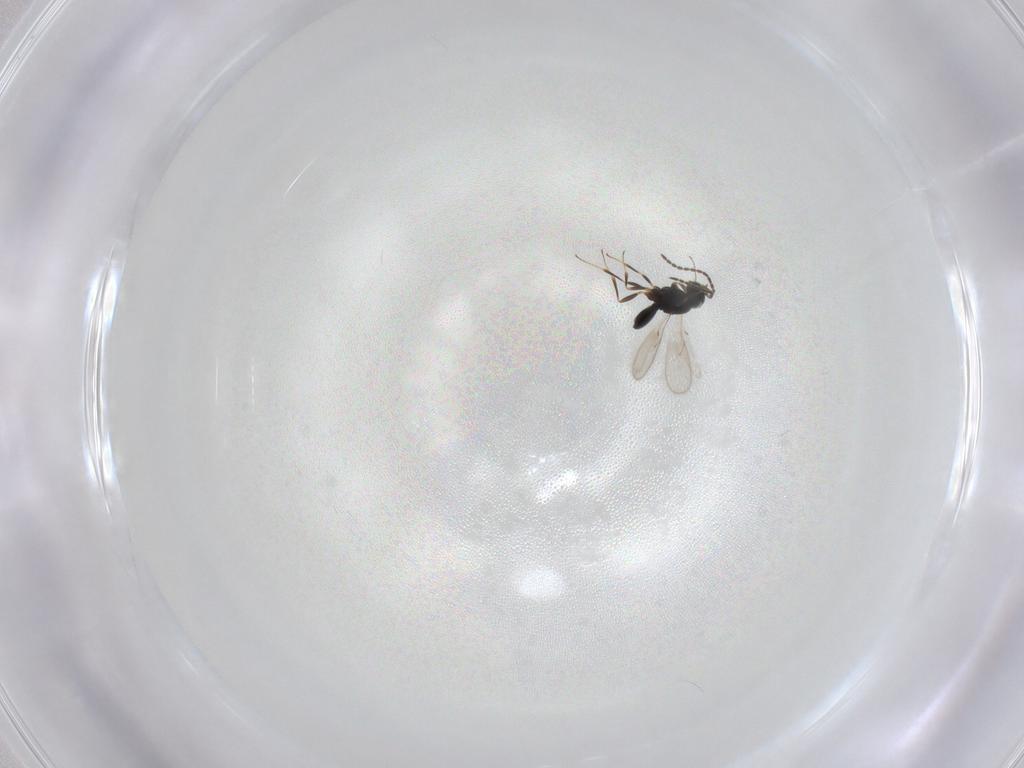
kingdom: Animalia
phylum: Arthropoda
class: Insecta
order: Hymenoptera
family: Scelionidae
